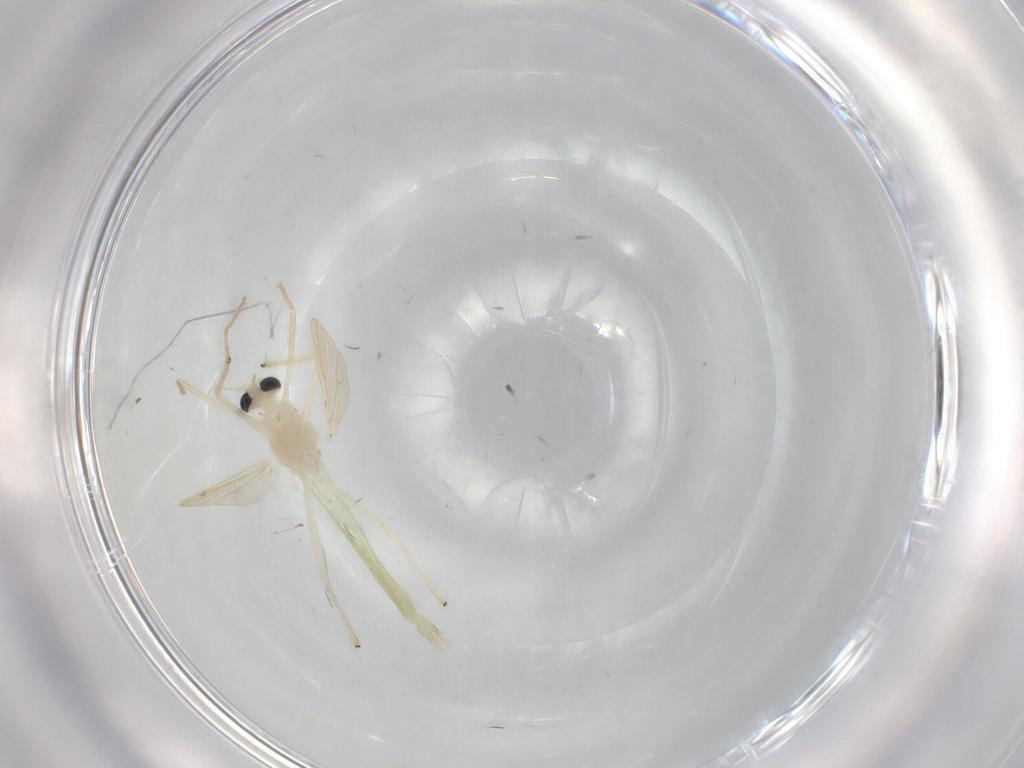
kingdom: Animalia
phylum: Arthropoda
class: Insecta
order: Diptera
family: Chironomidae
